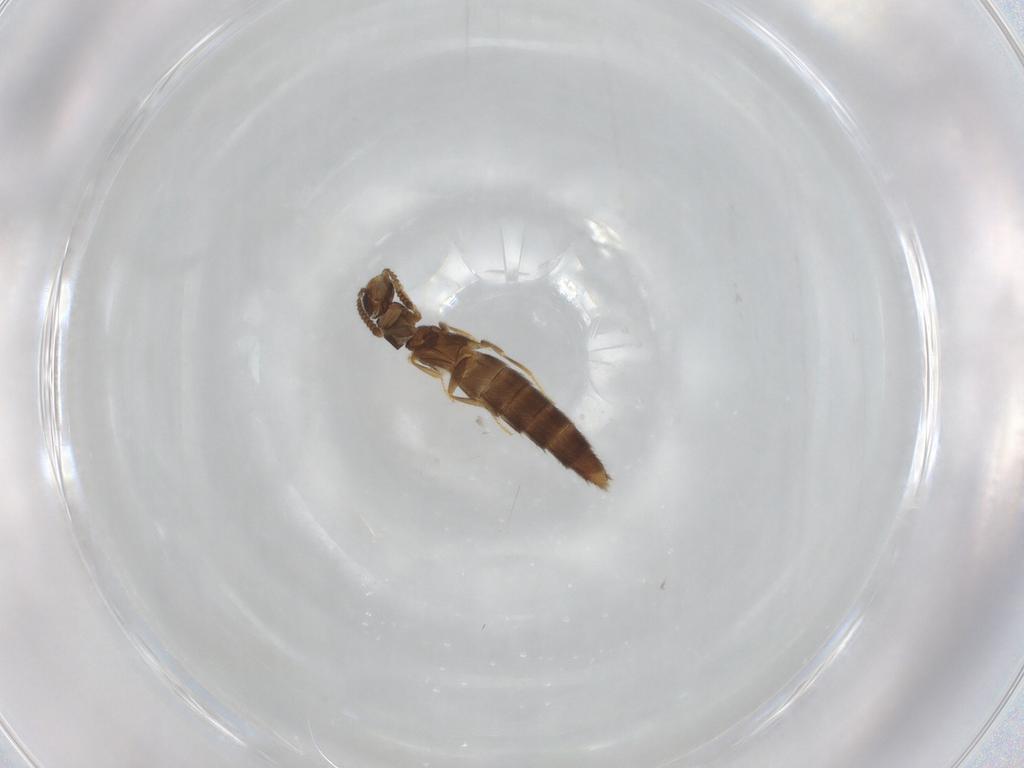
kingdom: Animalia
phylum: Arthropoda
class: Insecta
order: Coleoptera
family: Staphylinidae
